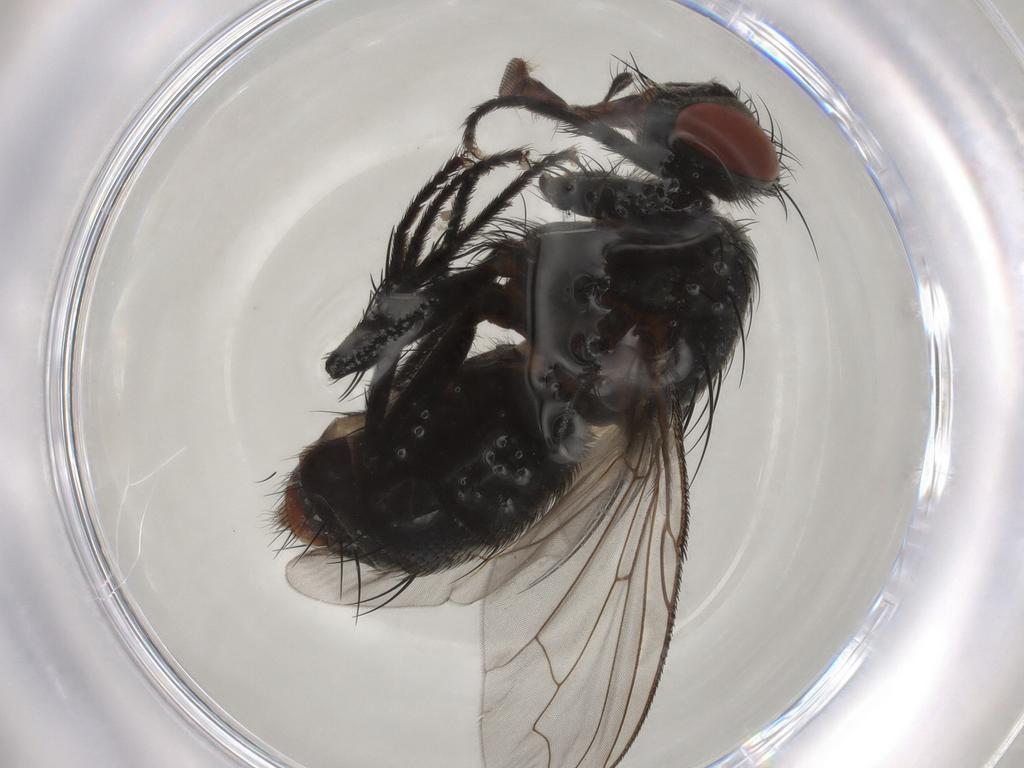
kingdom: Animalia
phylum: Arthropoda
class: Insecta
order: Diptera
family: Sarcophagidae
